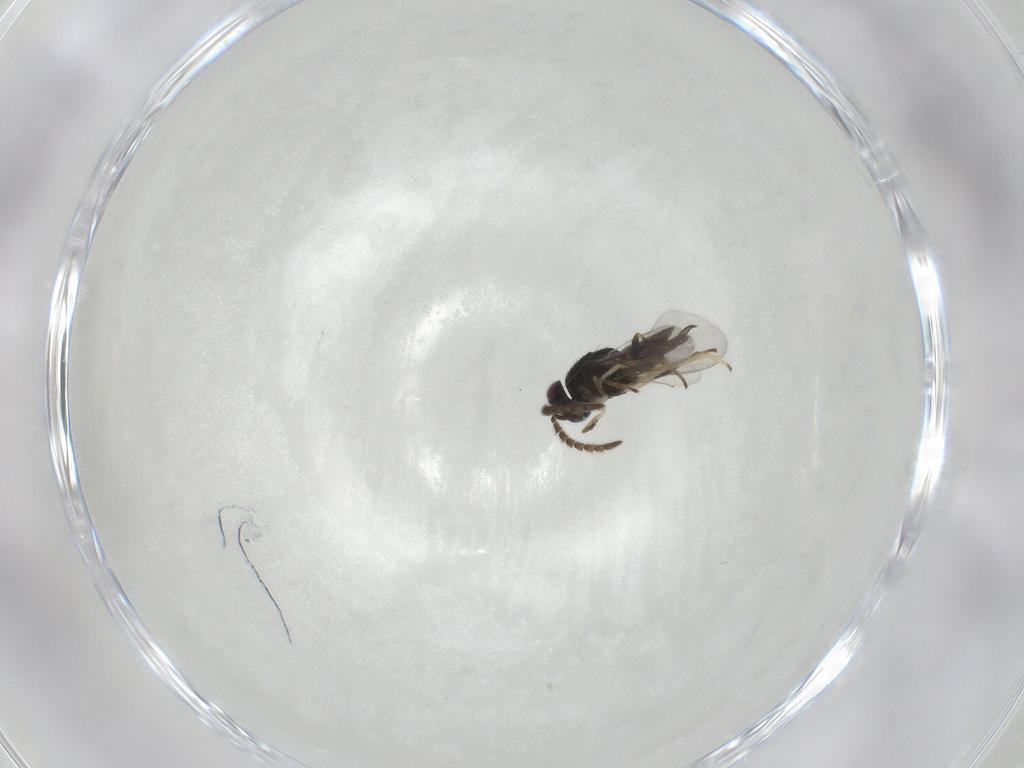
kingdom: Animalia
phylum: Arthropoda
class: Insecta
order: Hymenoptera
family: Encyrtidae
